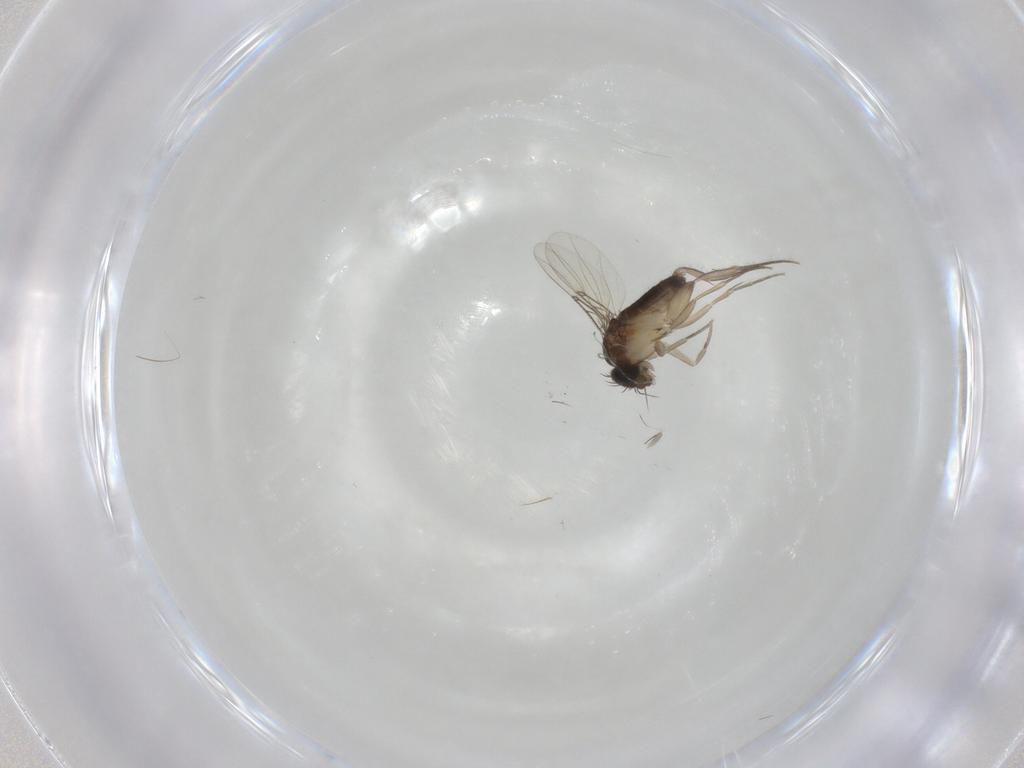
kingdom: Animalia
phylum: Arthropoda
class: Insecta
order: Diptera
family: Phoridae
